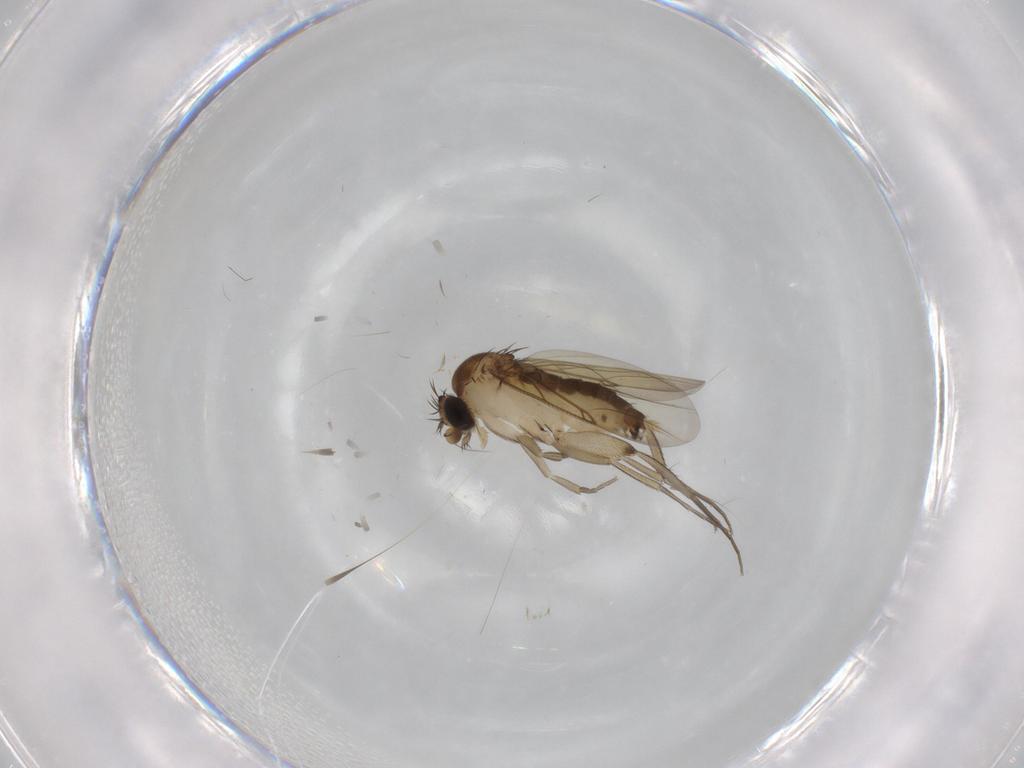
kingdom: Animalia
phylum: Arthropoda
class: Insecta
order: Diptera
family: Phoridae
